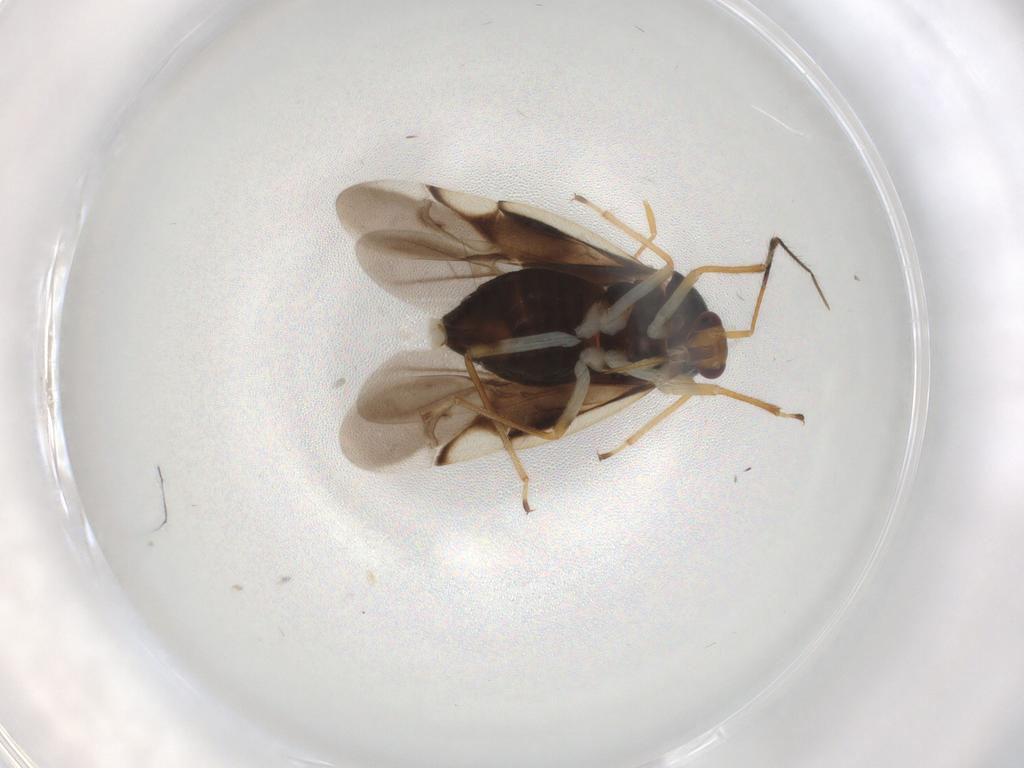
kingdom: Animalia
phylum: Arthropoda
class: Insecta
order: Hemiptera
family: Miridae
